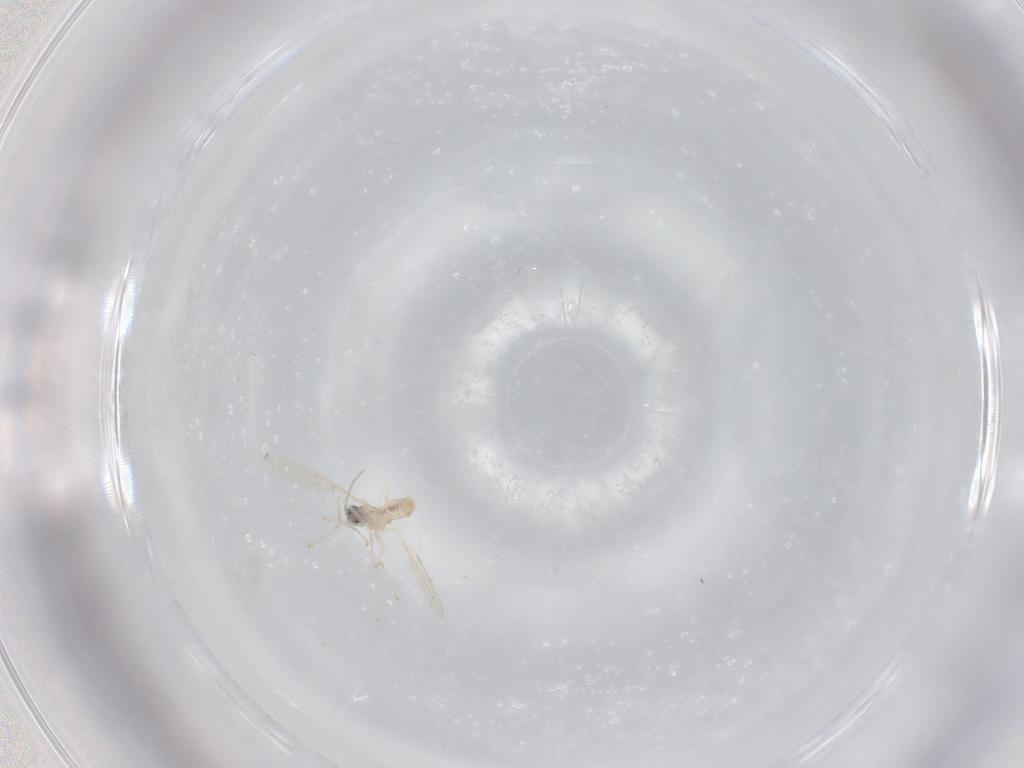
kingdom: Animalia
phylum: Arthropoda
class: Insecta
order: Diptera
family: Cecidomyiidae
